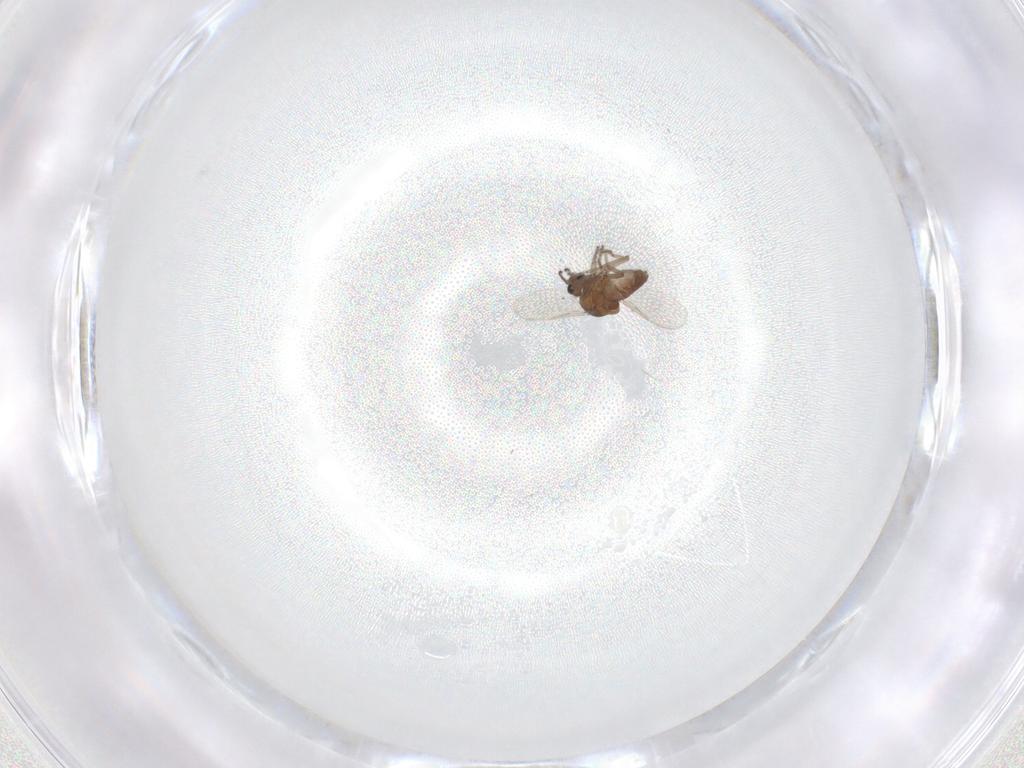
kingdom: Animalia
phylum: Arthropoda
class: Insecta
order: Diptera
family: Ceratopogonidae
